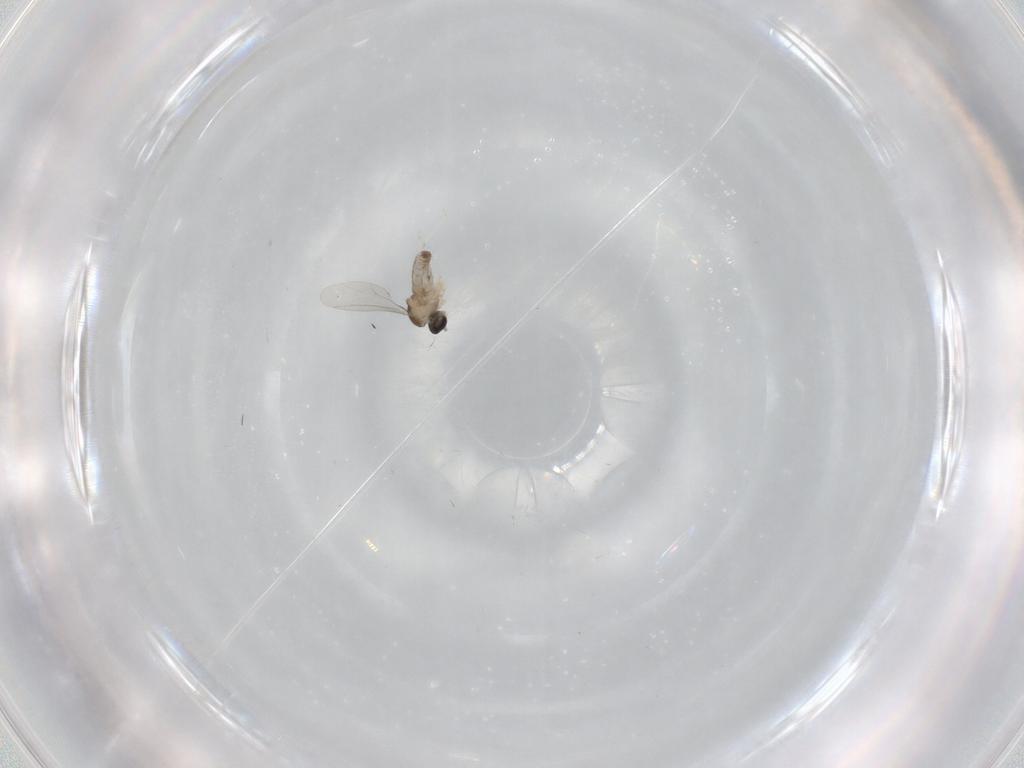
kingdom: Animalia
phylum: Arthropoda
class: Insecta
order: Diptera
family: Cecidomyiidae
